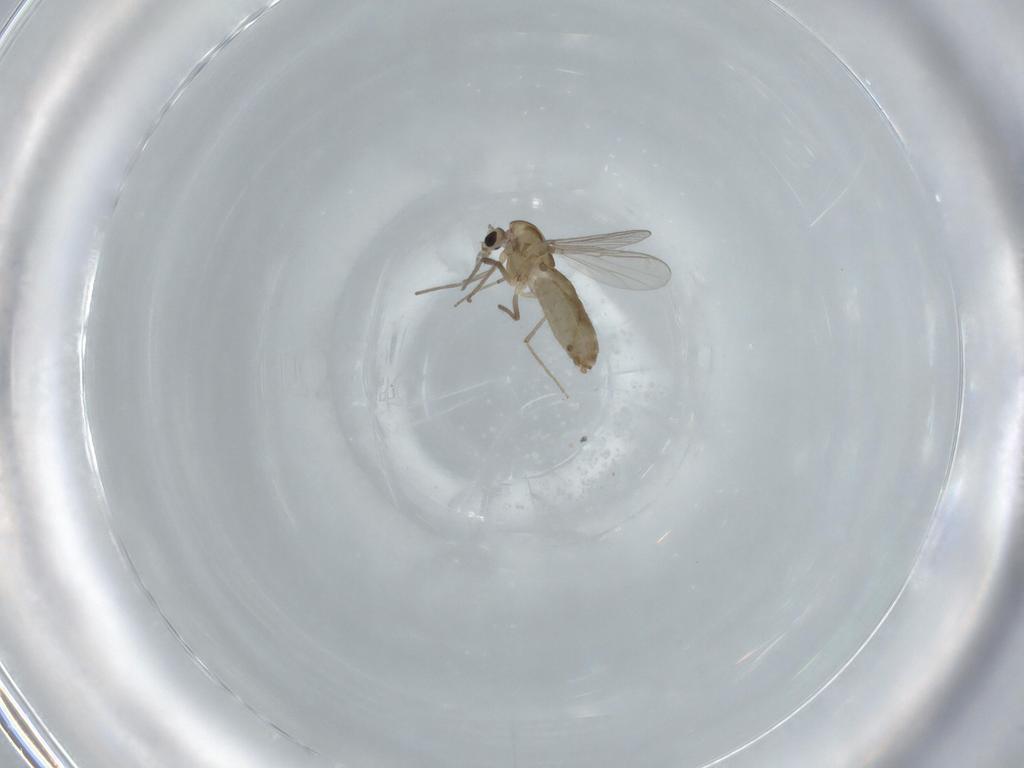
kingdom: Animalia
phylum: Arthropoda
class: Insecta
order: Diptera
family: Chironomidae
